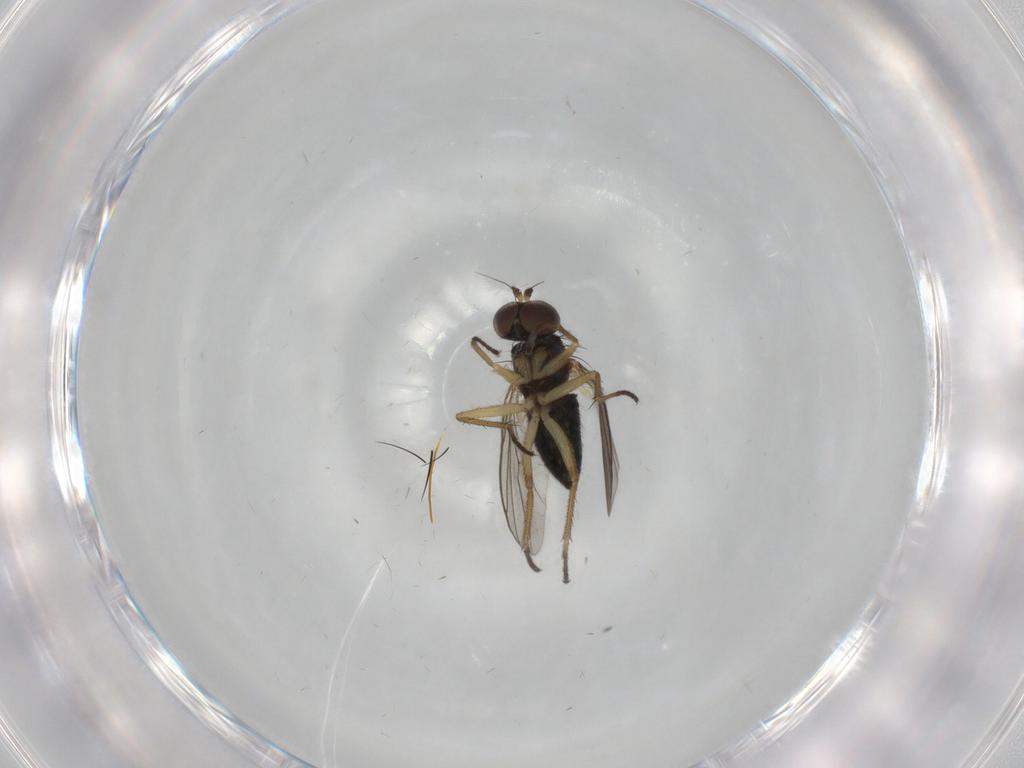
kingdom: Animalia
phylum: Arthropoda
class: Insecta
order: Diptera
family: Dolichopodidae
